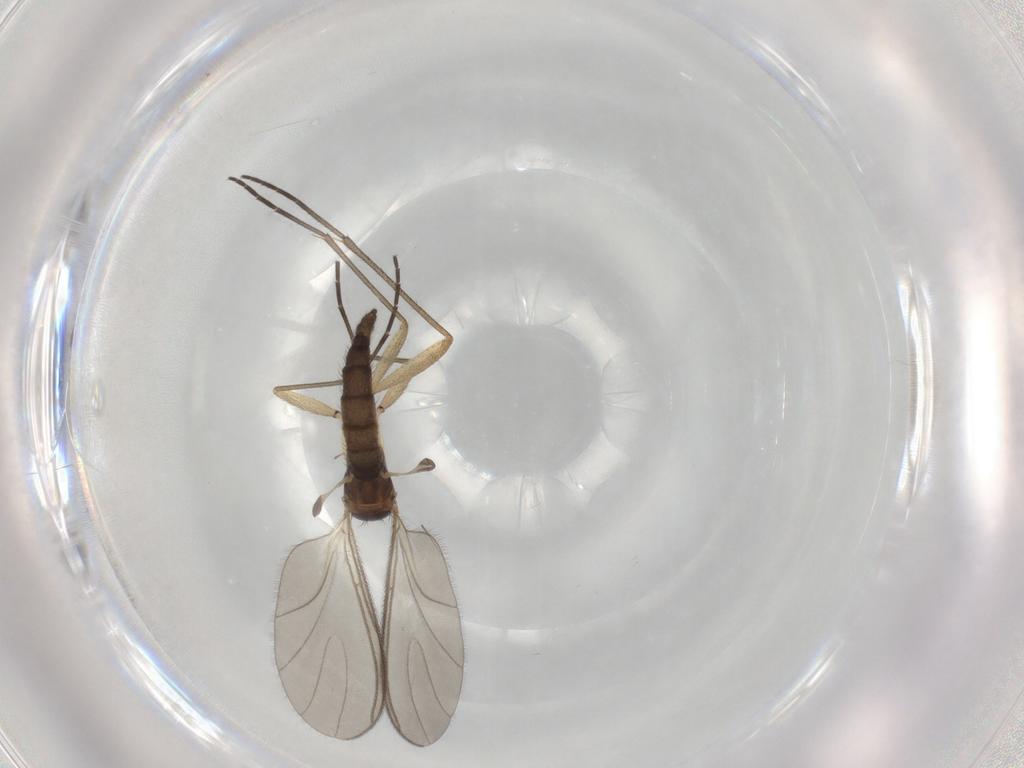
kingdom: Animalia
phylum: Arthropoda
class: Insecta
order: Diptera
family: Sciaridae
